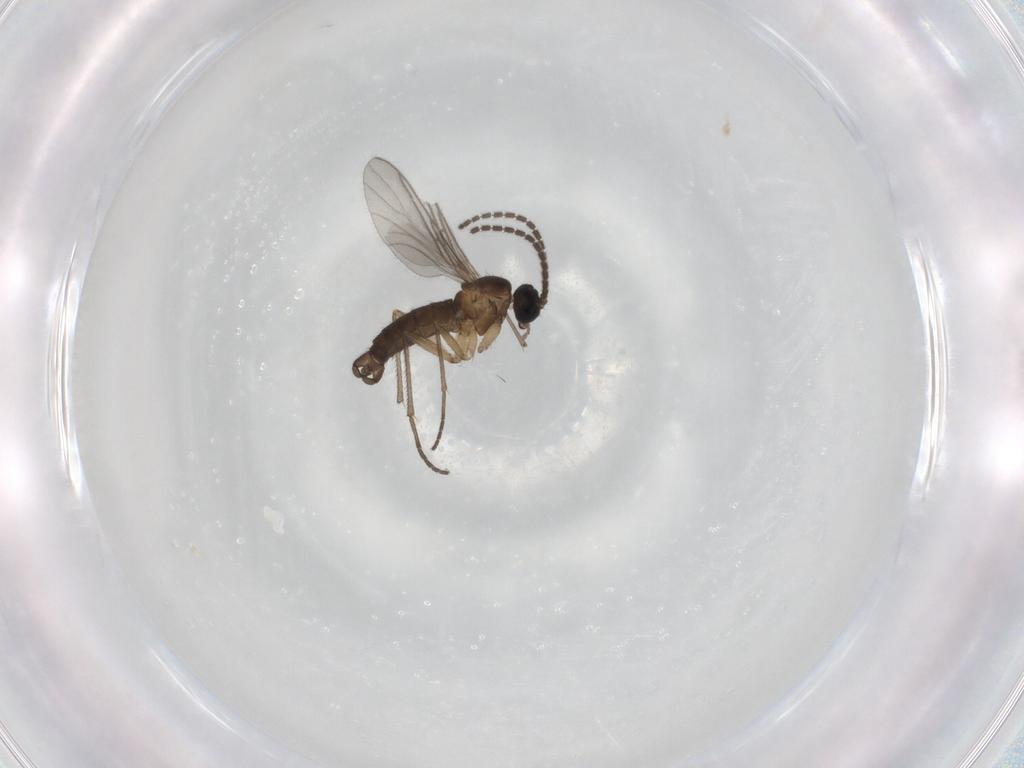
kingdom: Animalia
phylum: Arthropoda
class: Insecta
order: Diptera
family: Sciaridae
